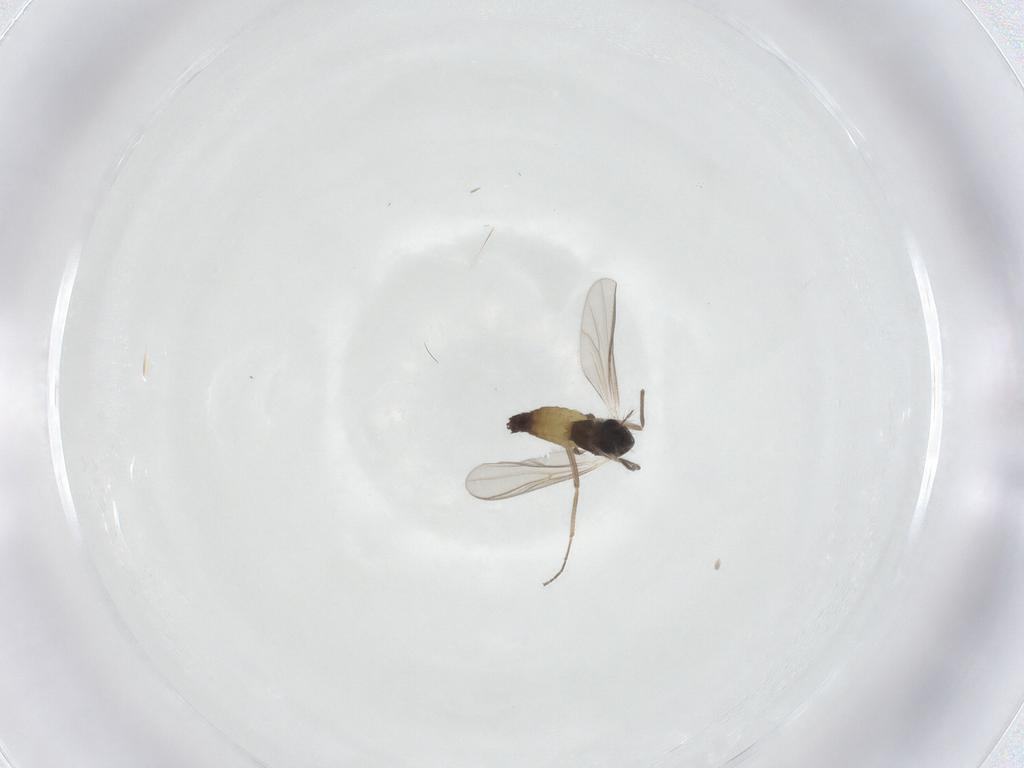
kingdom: Animalia
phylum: Arthropoda
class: Insecta
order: Diptera
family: Chironomidae
